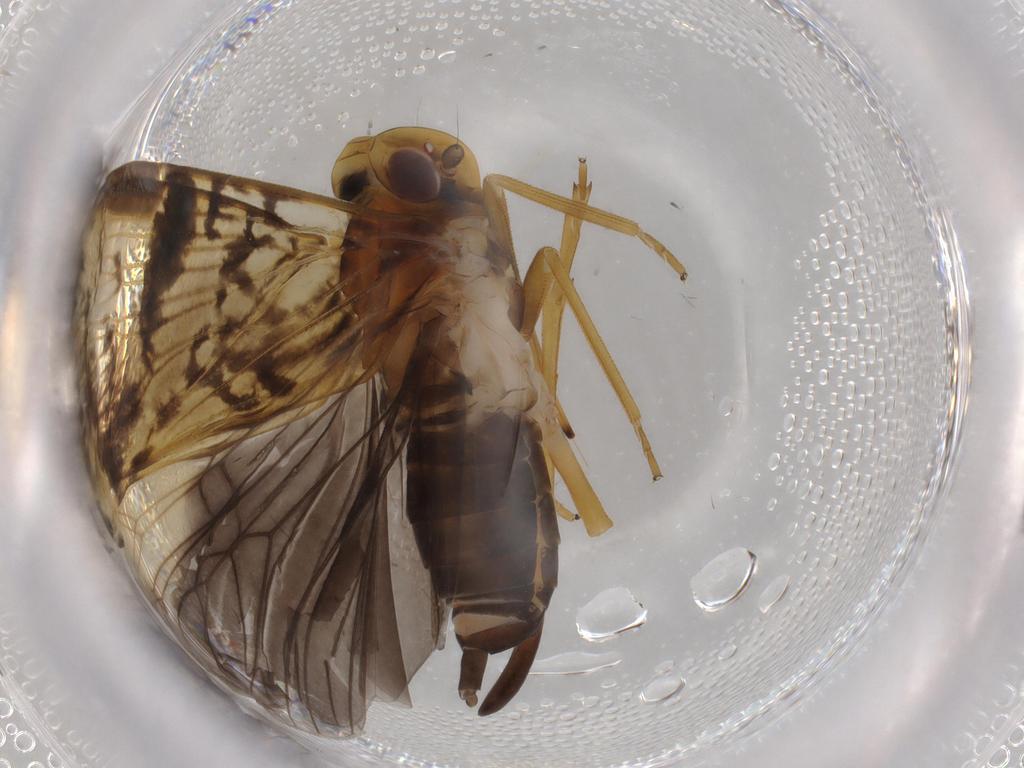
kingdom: Animalia
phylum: Arthropoda
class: Insecta
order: Hemiptera
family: Cixiidae
